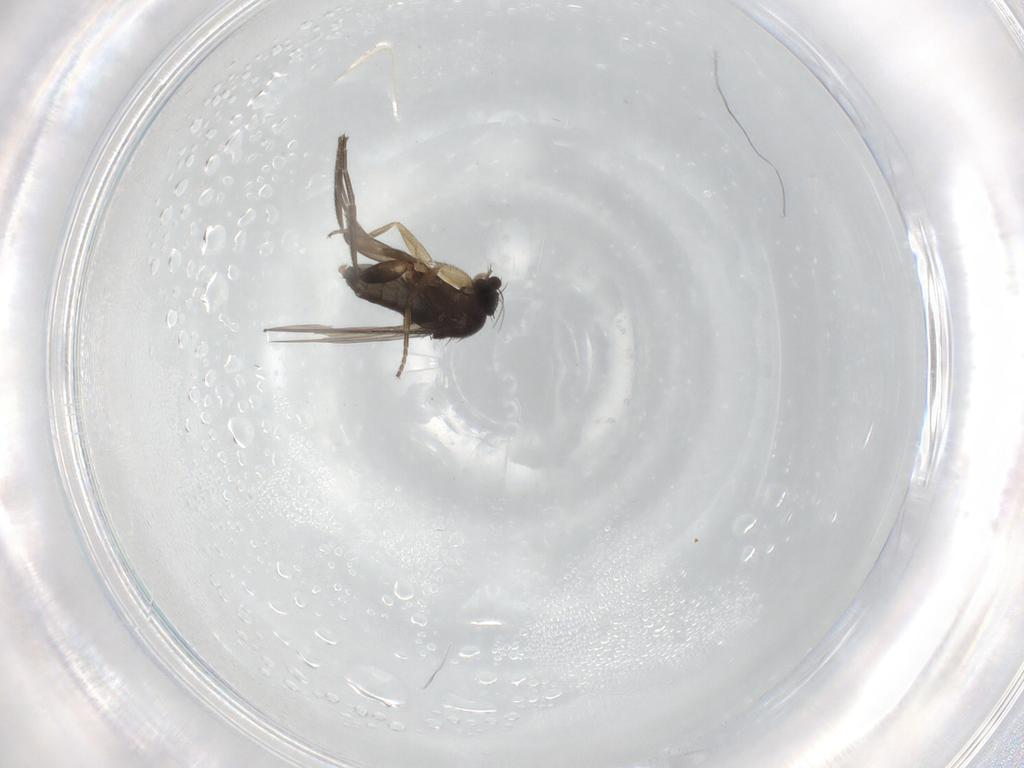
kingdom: Animalia
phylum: Arthropoda
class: Insecta
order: Diptera
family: Phoridae
